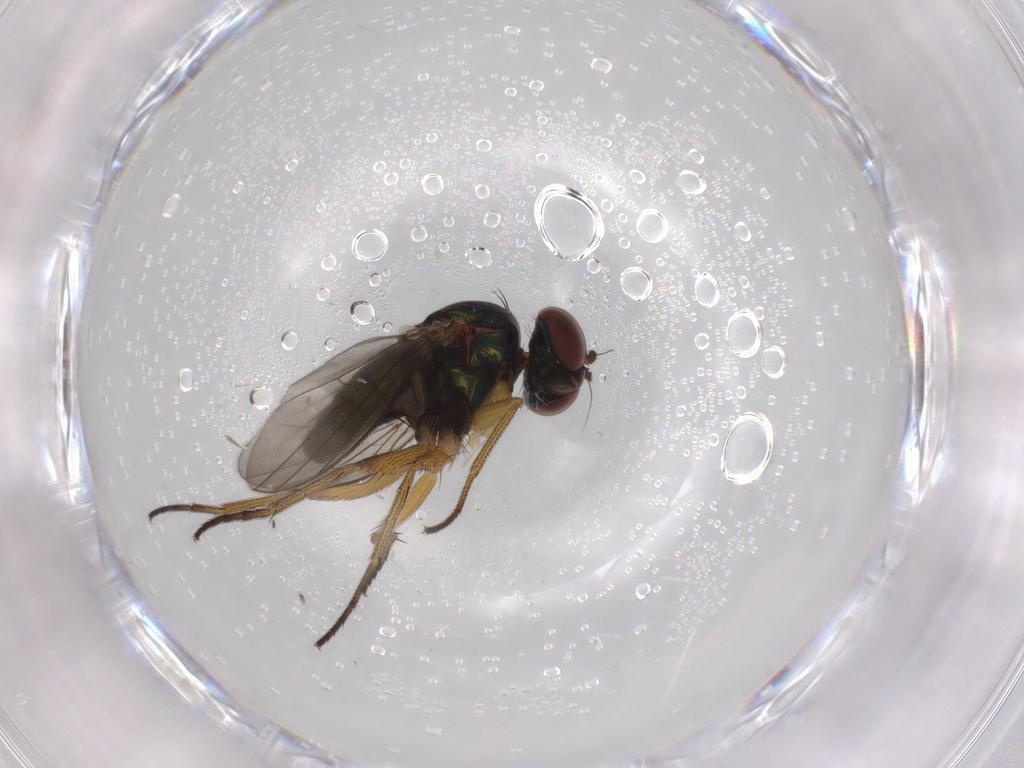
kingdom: Animalia
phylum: Arthropoda
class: Insecta
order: Diptera
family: Dolichopodidae
